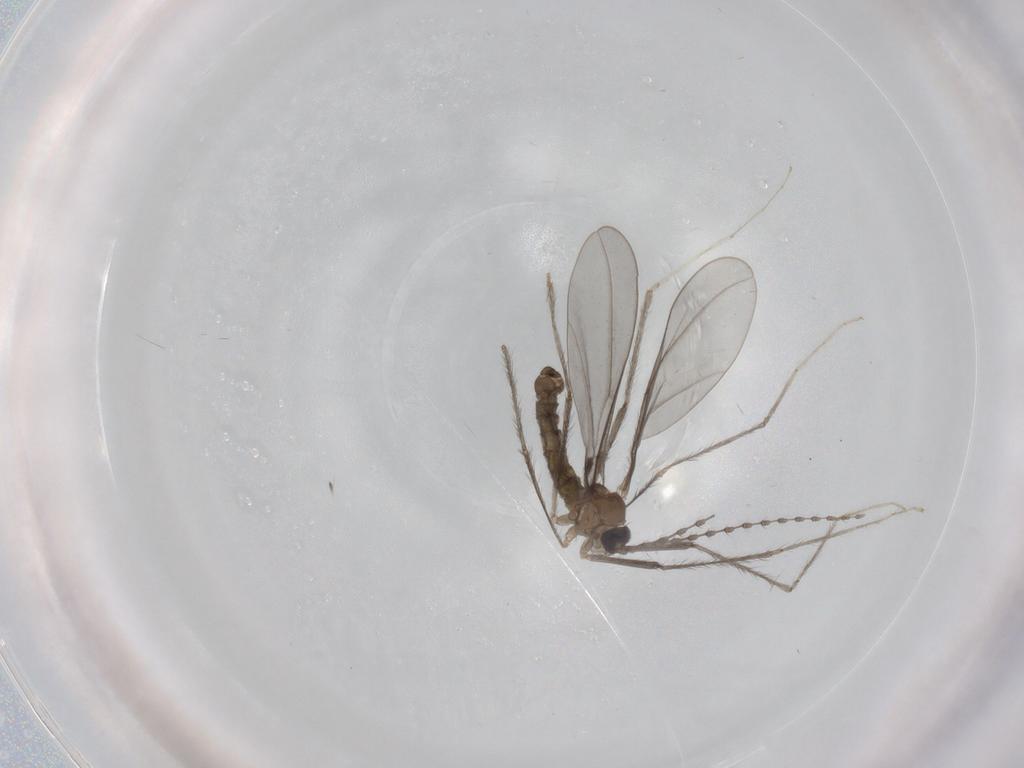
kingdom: Animalia
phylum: Arthropoda
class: Insecta
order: Diptera
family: Cecidomyiidae
